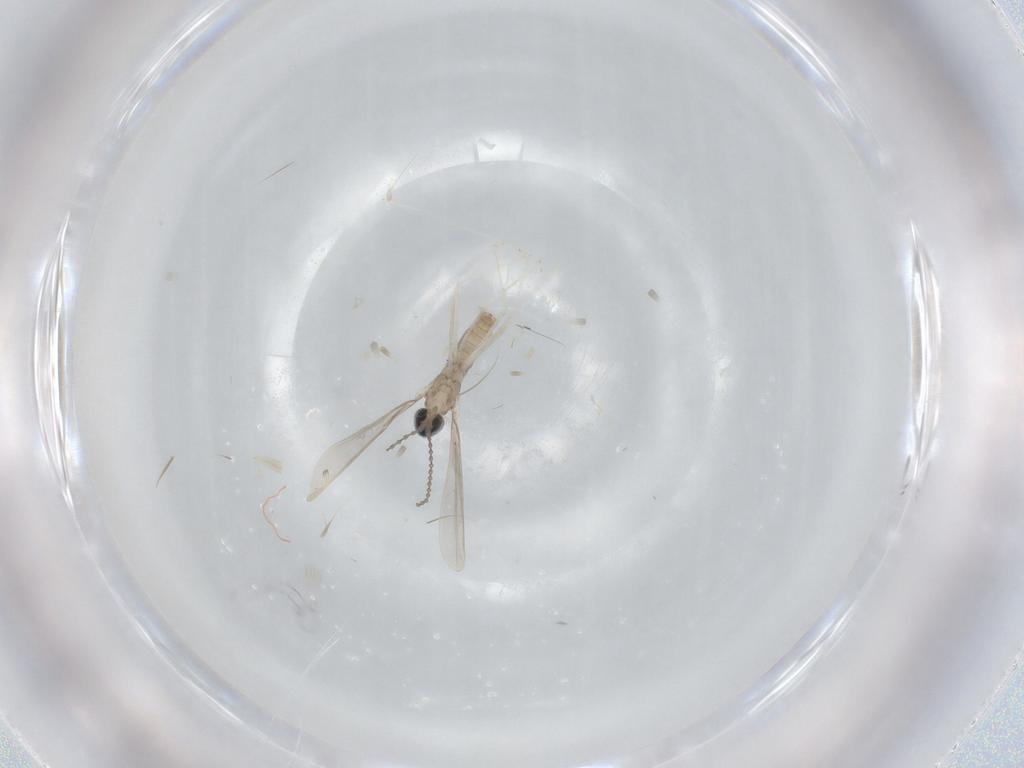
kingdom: Animalia
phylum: Arthropoda
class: Insecta
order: Diptera
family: Cecidomyiidae
